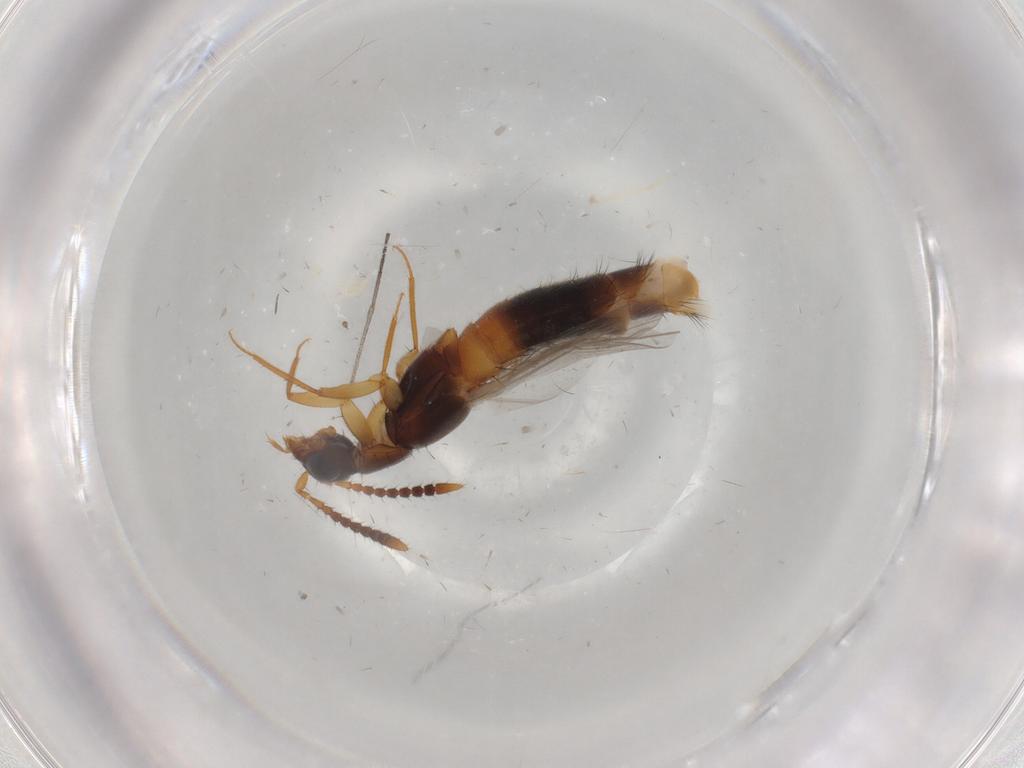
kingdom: Animalia
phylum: Arthropoda
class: Insecta
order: Coleoptera
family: Staphylinidae
